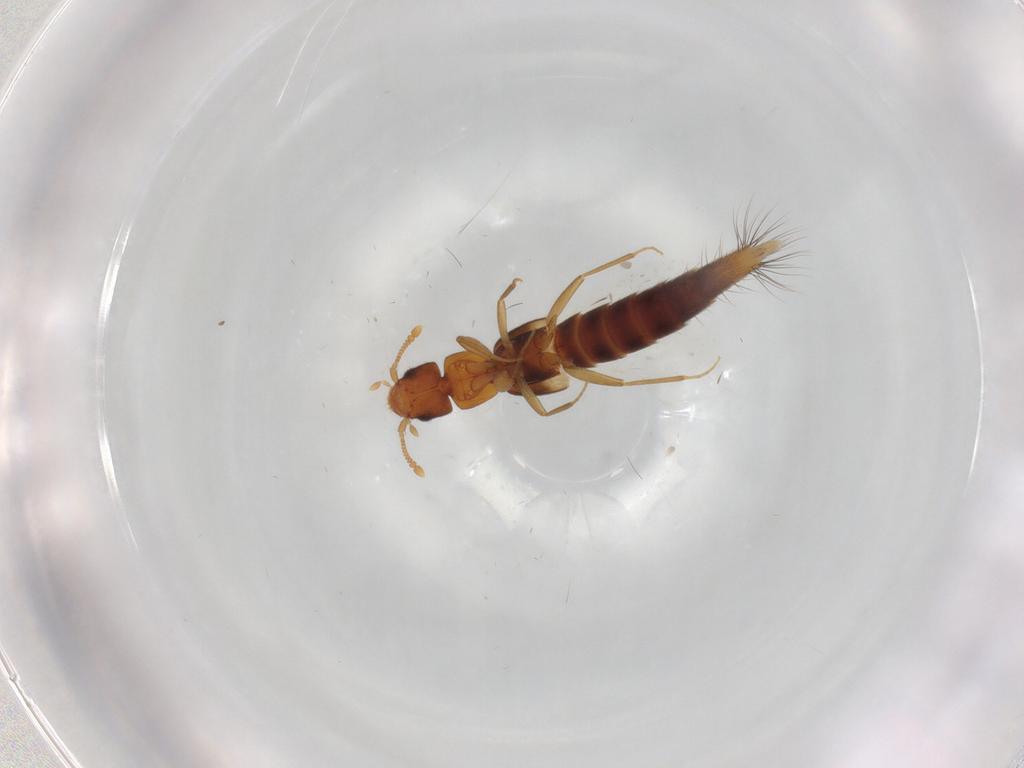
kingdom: Animalia
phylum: Arthropoda
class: Insecta
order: Coleoptera
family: Staphylinidae
